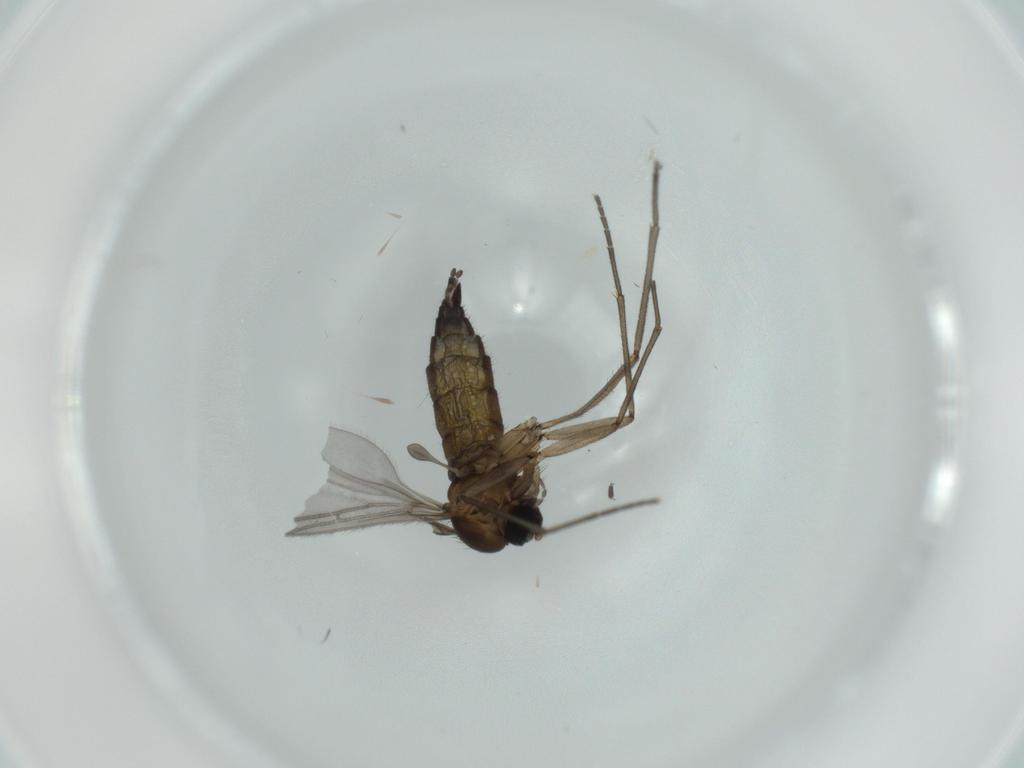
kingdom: Animalia
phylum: Arthropoda
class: Insecta
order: Diptera
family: Sciaridae
